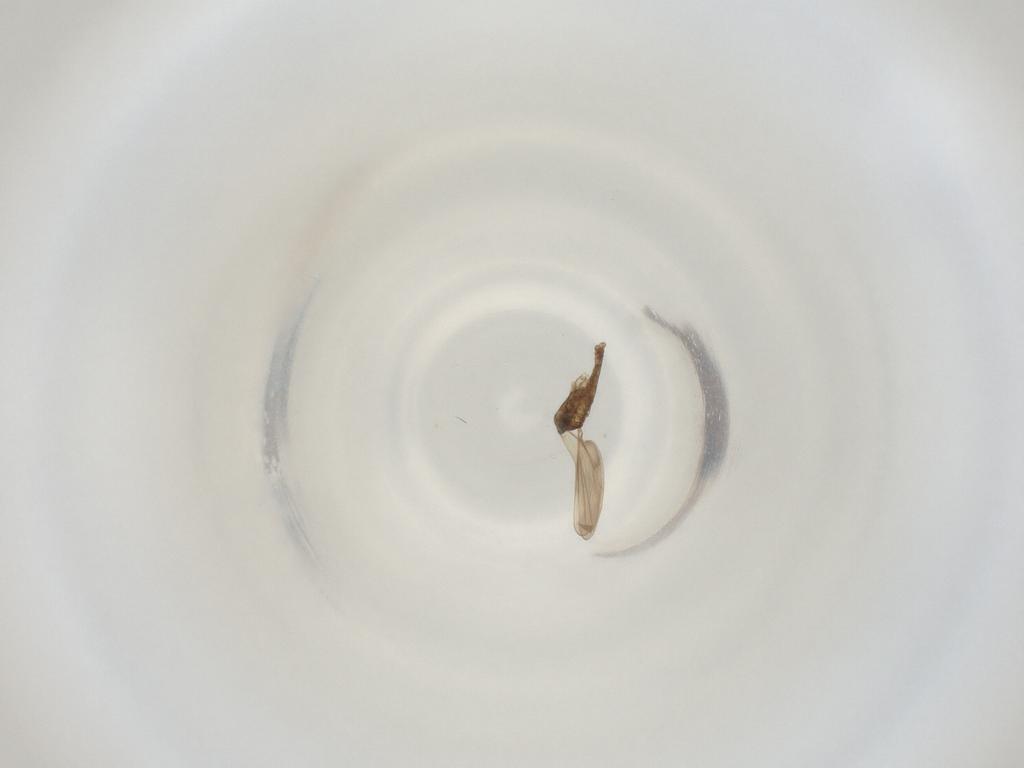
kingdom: Animalia
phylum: Arthropoda
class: Insecta
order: Diptera
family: Cecidomyiidae
